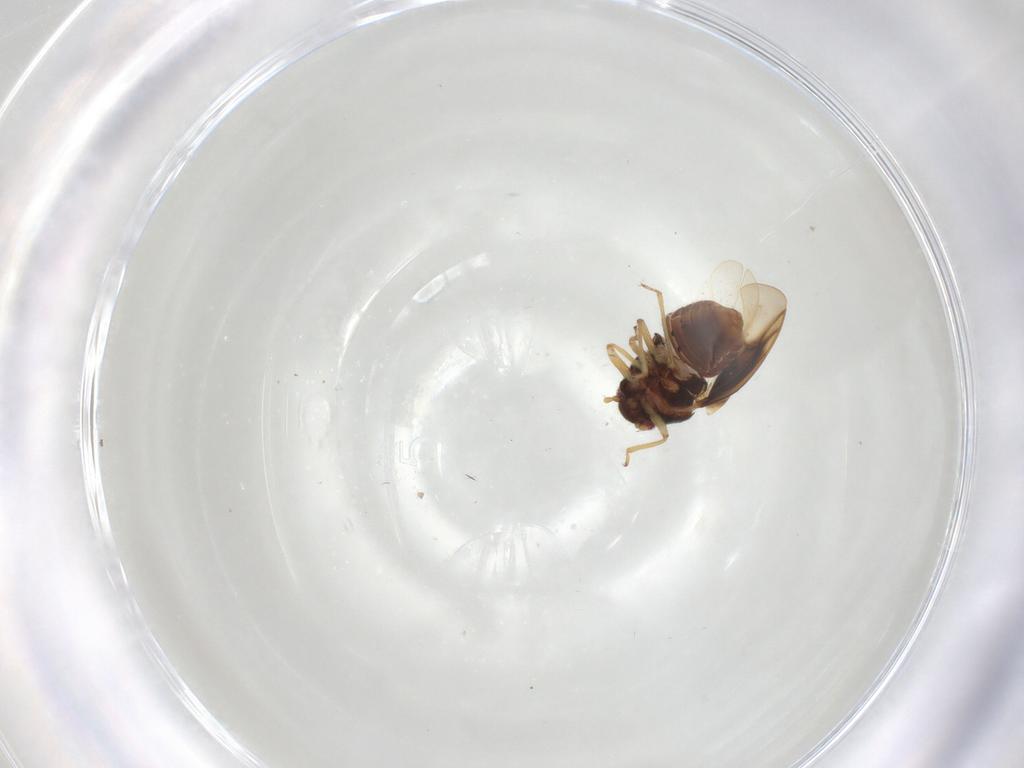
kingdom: Animalia
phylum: Arthropoda
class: Insecta
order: Hemiptera
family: Schizopteridae
